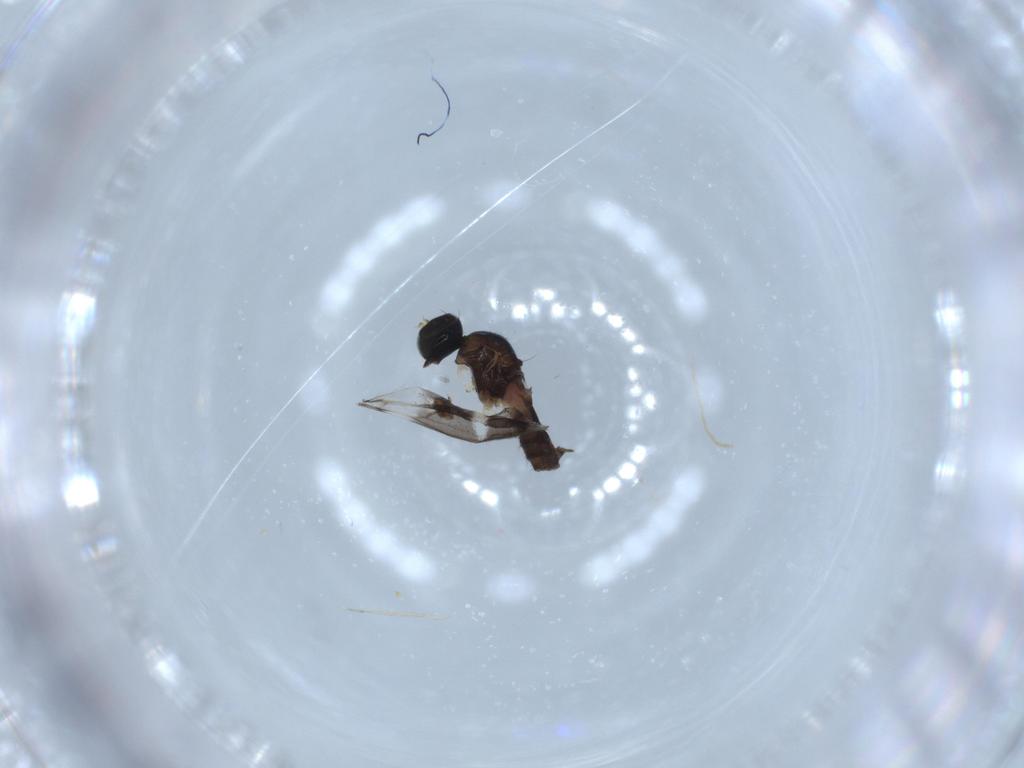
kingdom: Animalia
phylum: Arthropoda
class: Insecta
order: Diptera
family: Hybotidae
